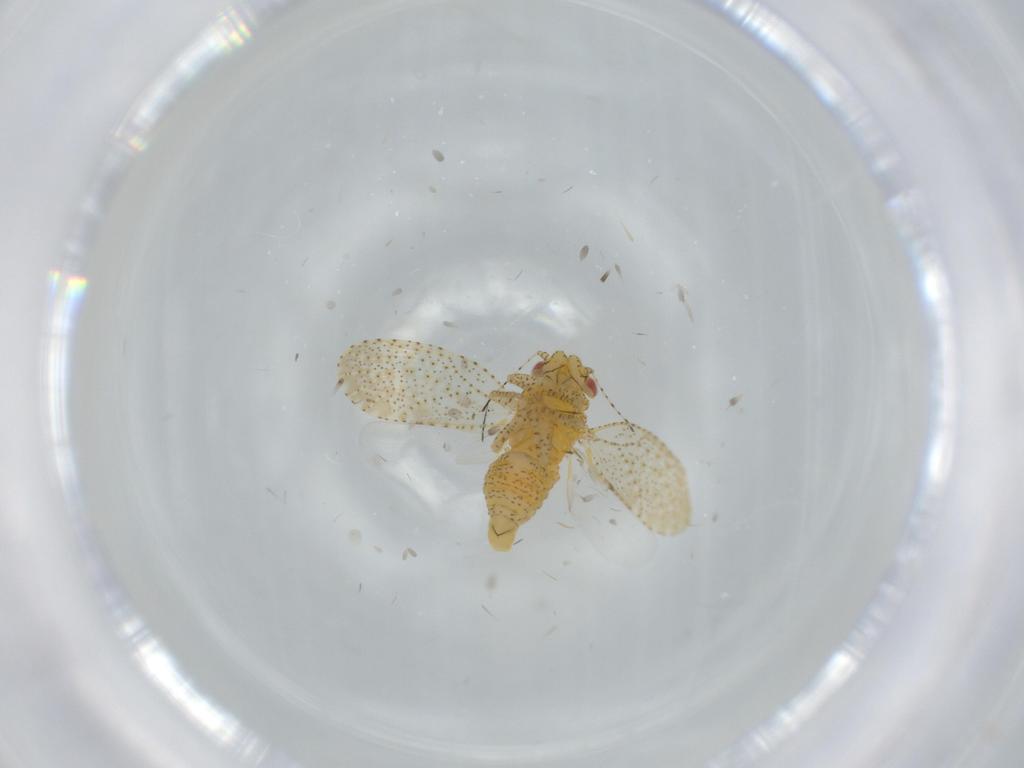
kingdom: Animalia
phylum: Arthropoda
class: Insecta
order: Hemiptera
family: Psyllidae
